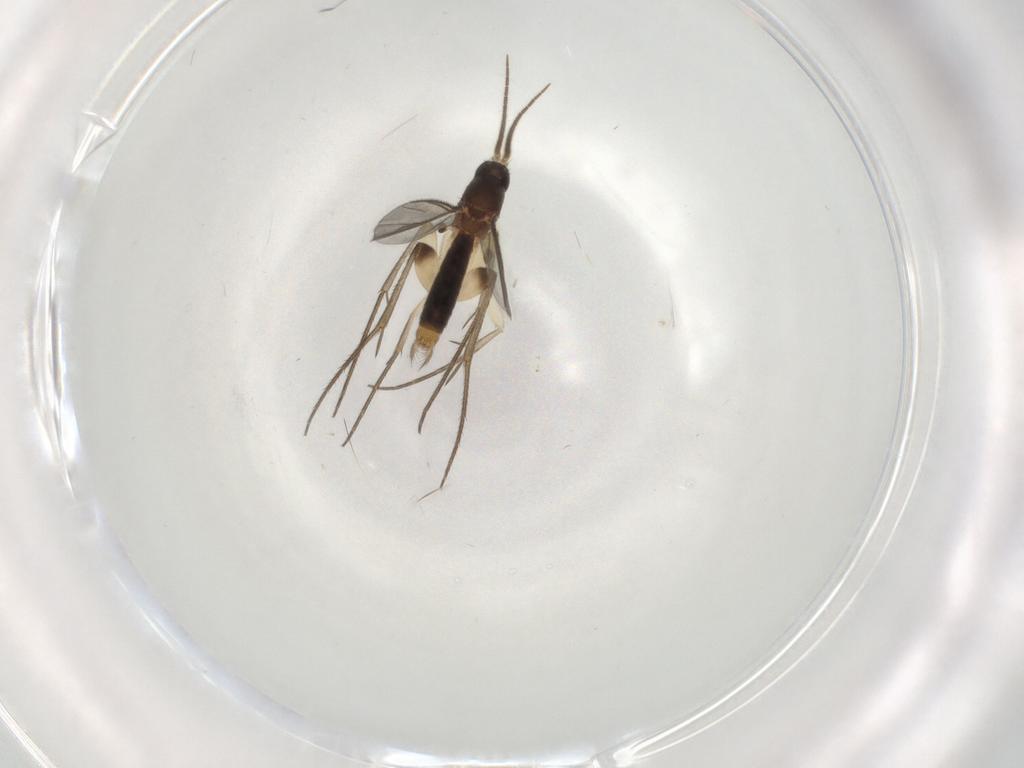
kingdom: Animalia
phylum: Arthropoda
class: Insecta
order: Diptera
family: Mycetophilidae
